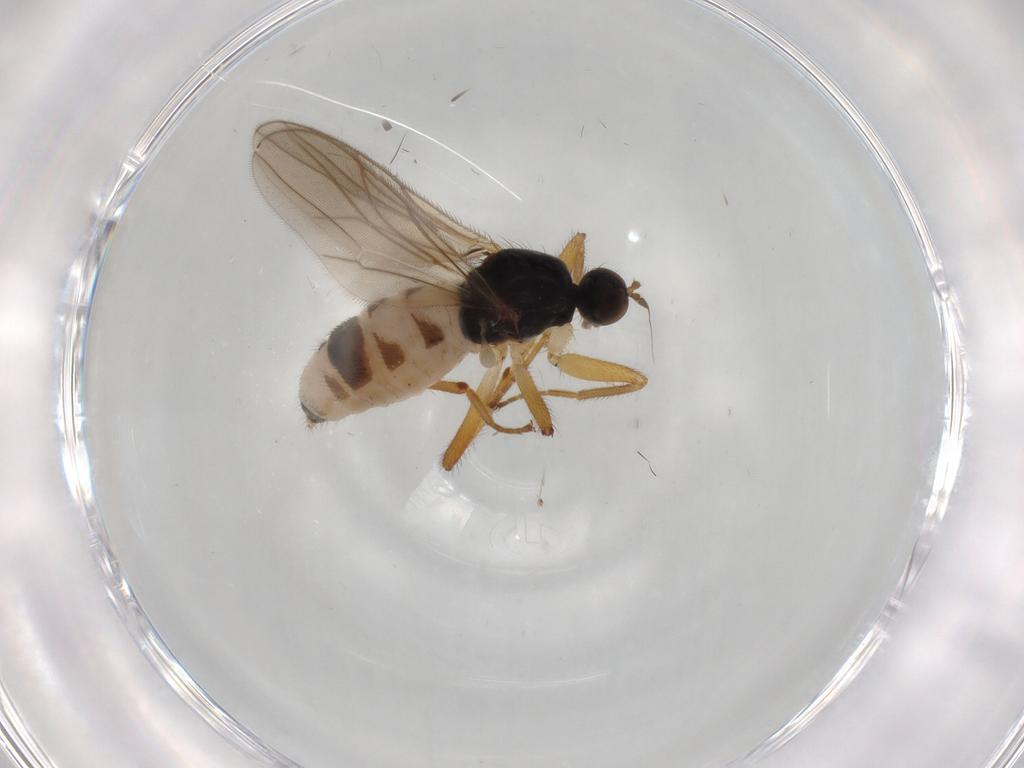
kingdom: Animalia
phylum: Arthropoda
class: Insecta
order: Diptera
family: Hybotidae
